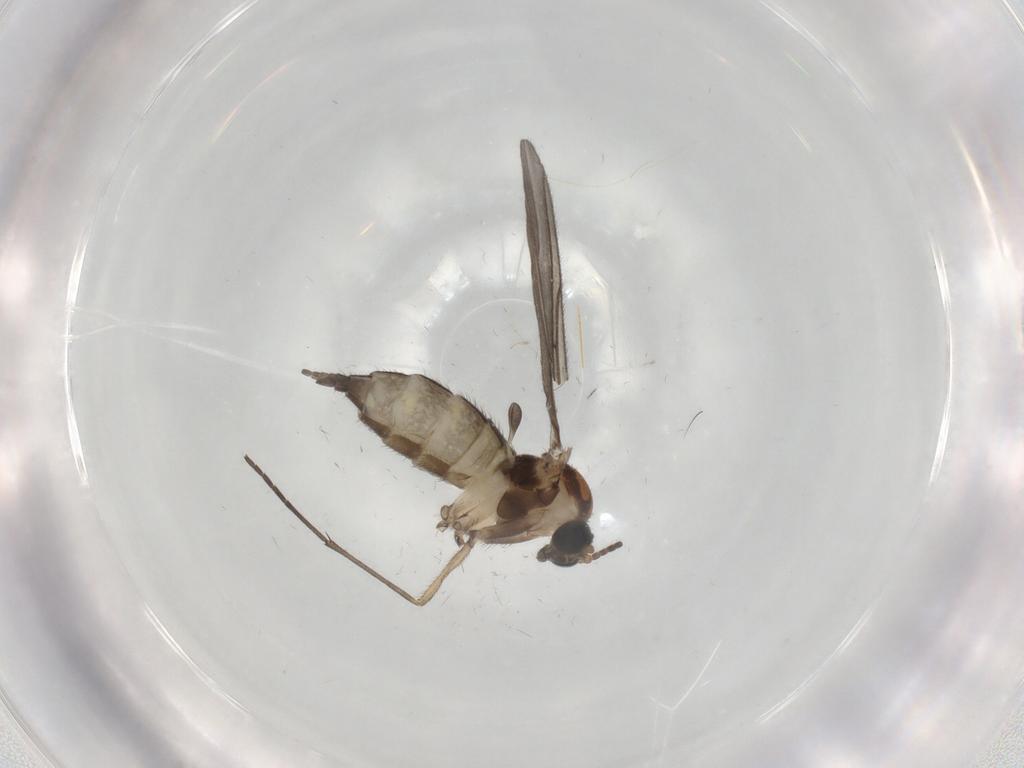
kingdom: Animalia
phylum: Arthropoda
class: Insecta
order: Diptera
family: Sciaridae
